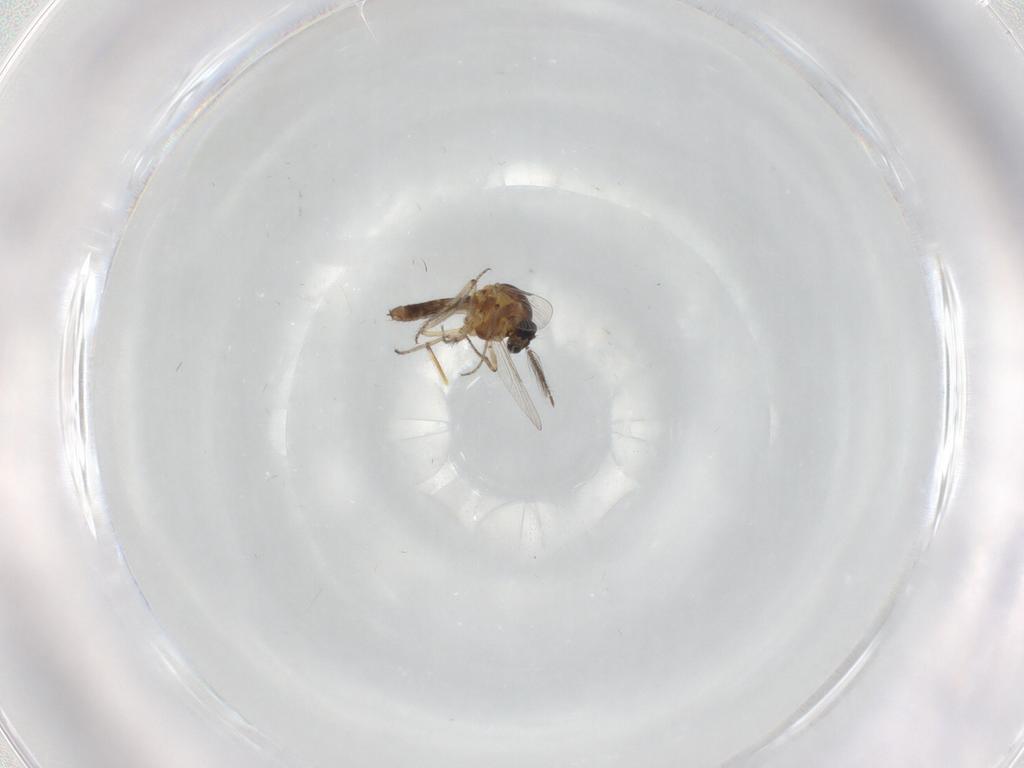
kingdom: Animalia
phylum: Arthropoda
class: Insecta
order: Diptera
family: Ceratopogonidae
